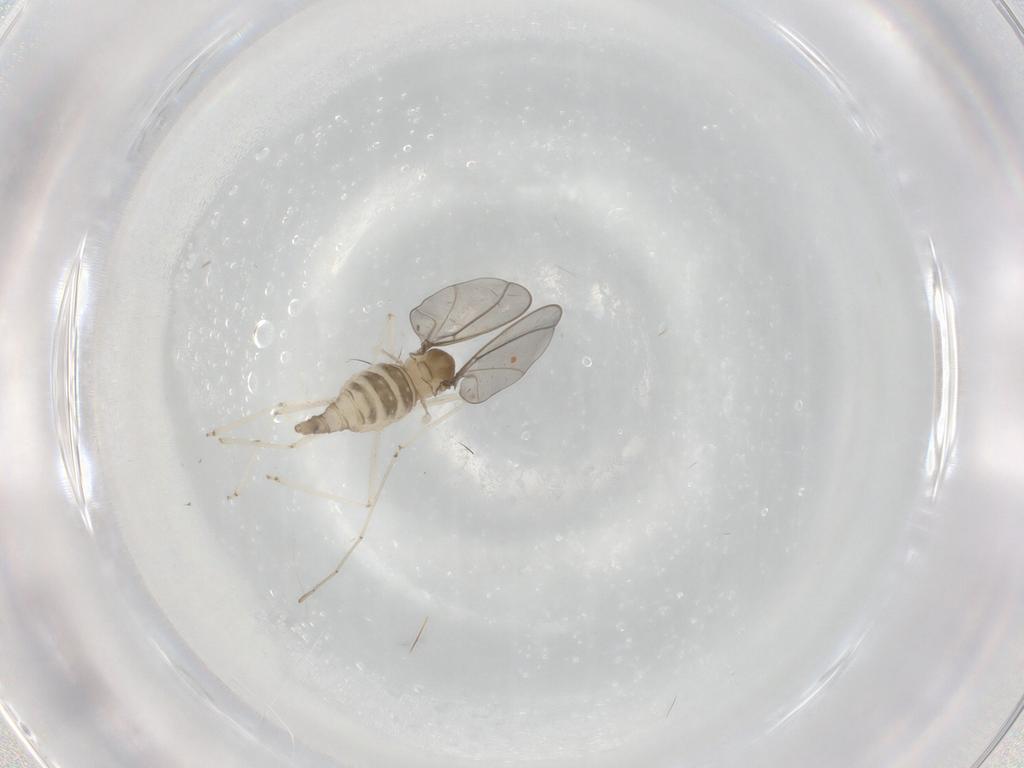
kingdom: Animalia
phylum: Arthropoda
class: Insecta
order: Diptera
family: Cecidomyiidae
